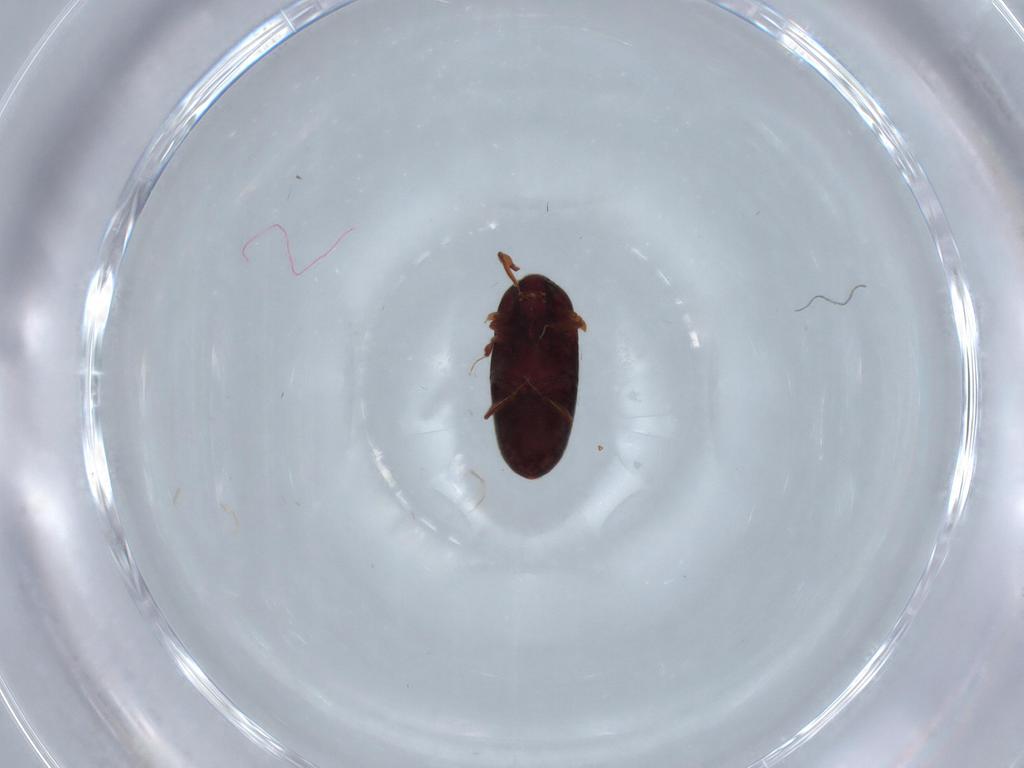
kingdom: Animalia
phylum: Arthropoda
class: Insecta
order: Coleoptera
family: Throscidae
